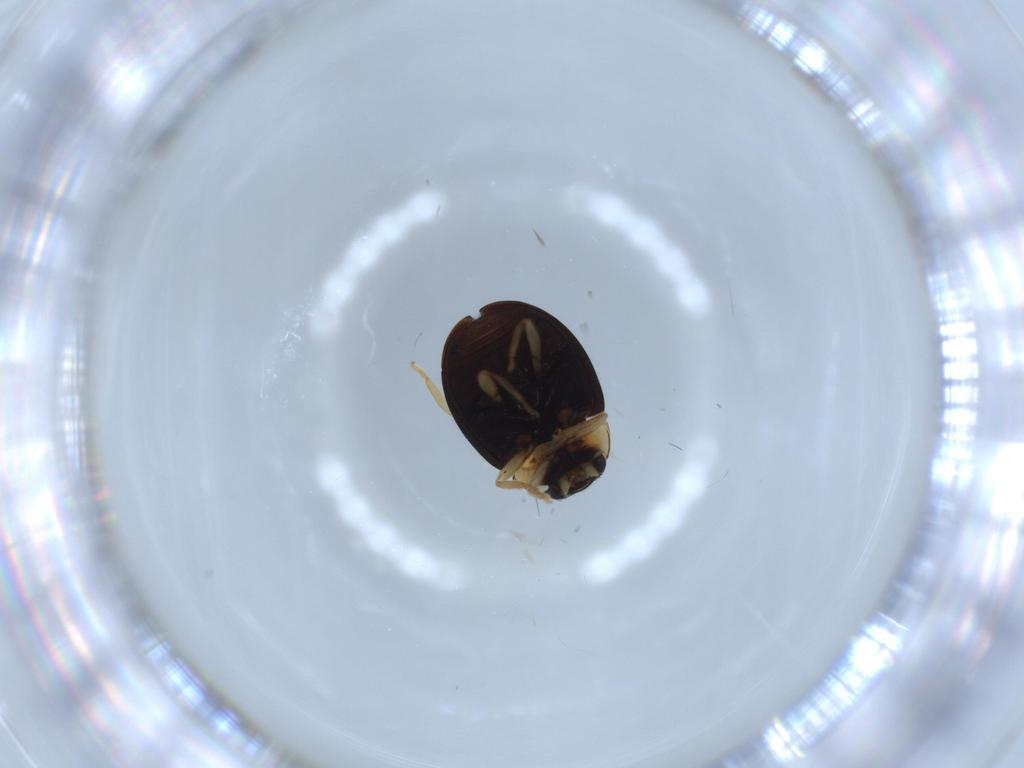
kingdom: Animalia
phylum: Arthropoda
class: Insecta
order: Coleoptera
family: Coccinellidae
